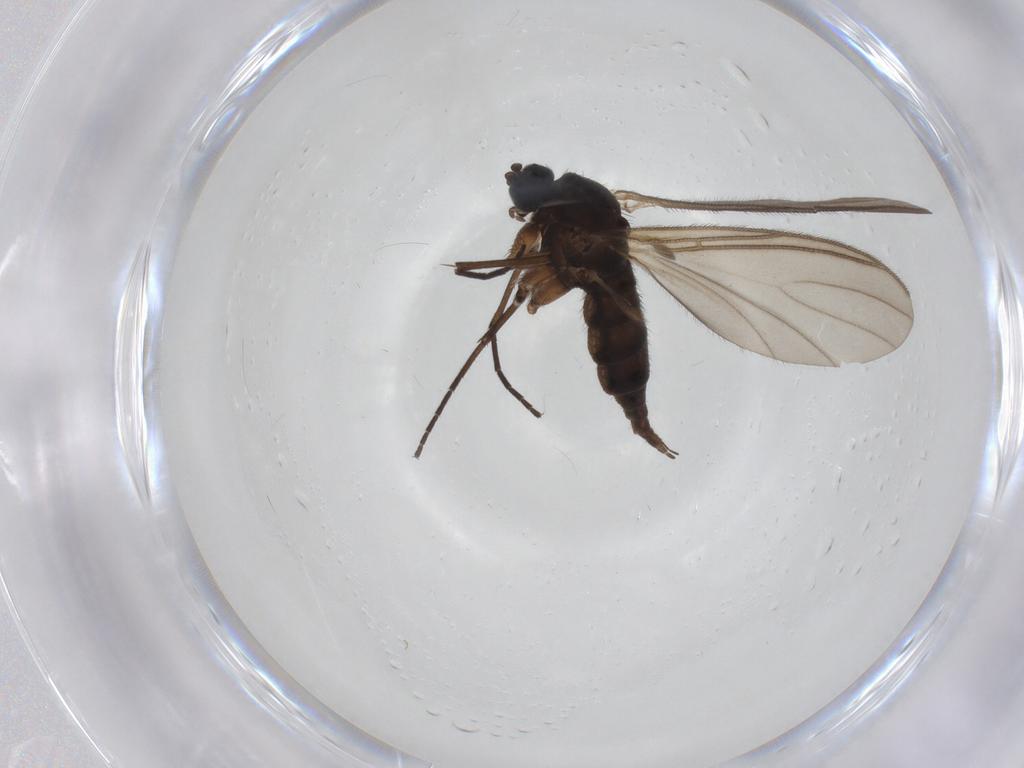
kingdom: Animalia
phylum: Arthropoda
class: Insecta
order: Diptera
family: Sciaridae
